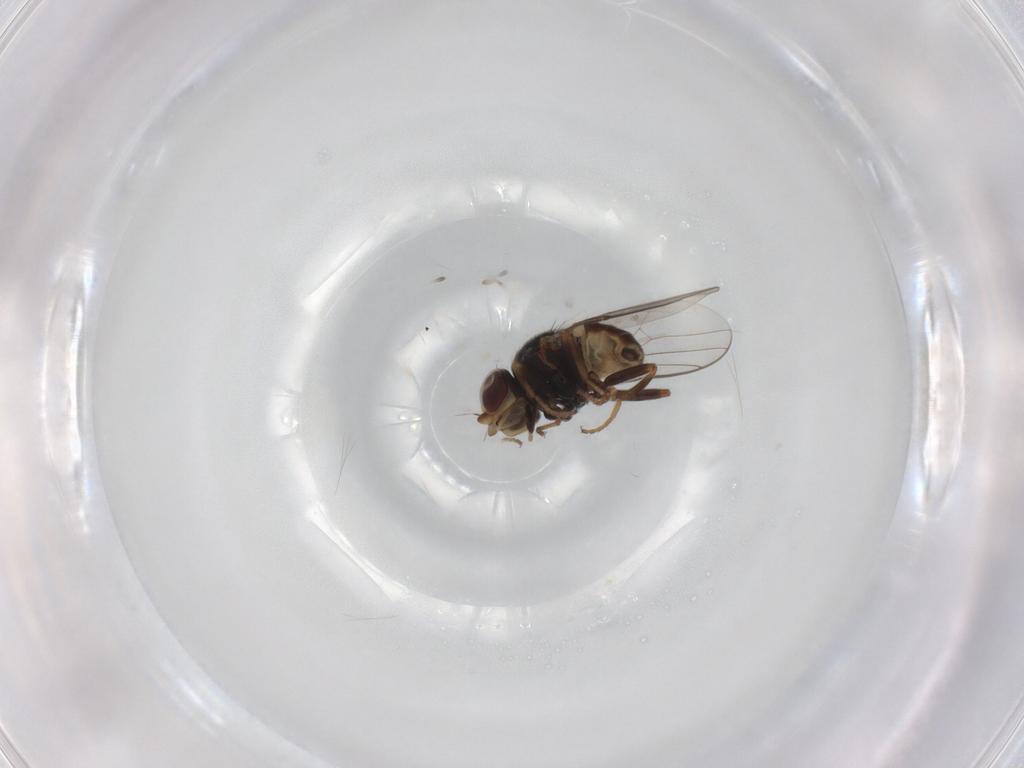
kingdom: Animalia
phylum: Arthropoda
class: Insecta
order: Diptera
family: Chloropidae
